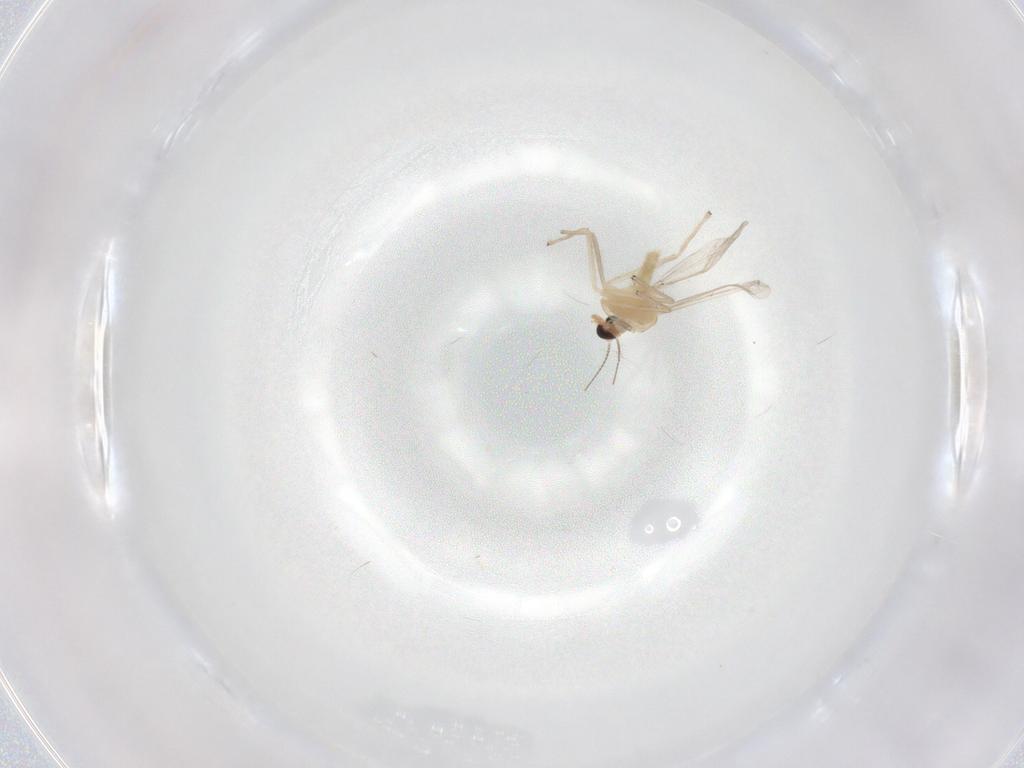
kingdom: Animalia
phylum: Arthropoda
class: Insecta
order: Diptera
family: Chironomidae
